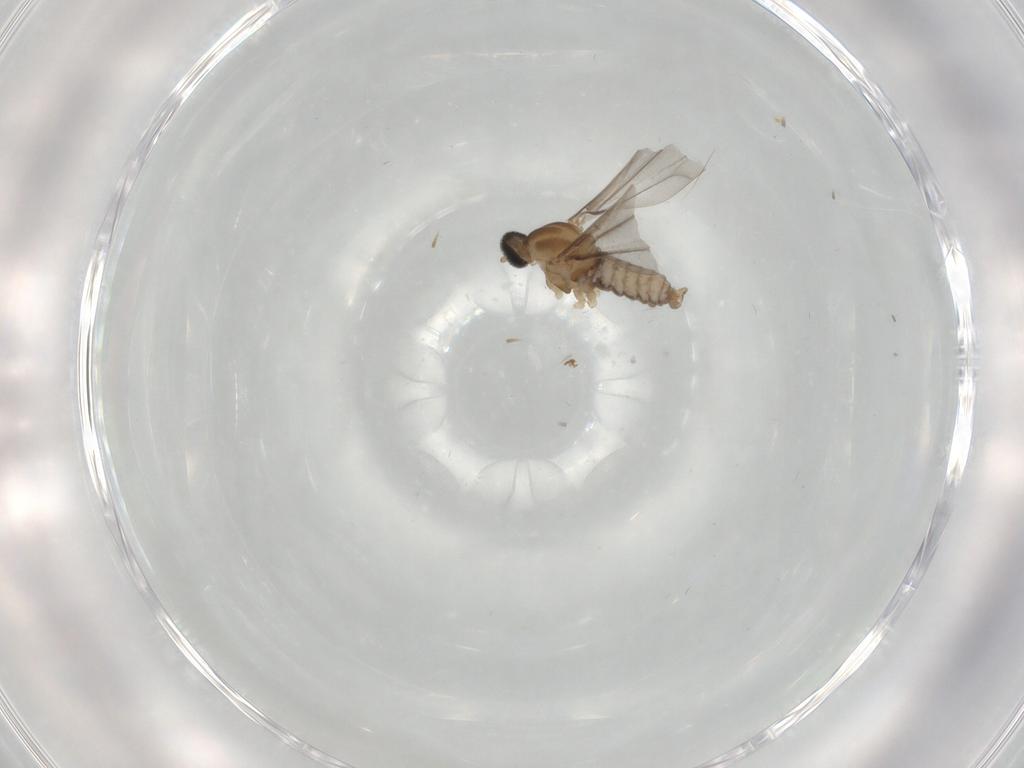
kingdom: Animalia
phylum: Arthropoda
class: Insecta
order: Diptera
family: Cecidomyiidae
